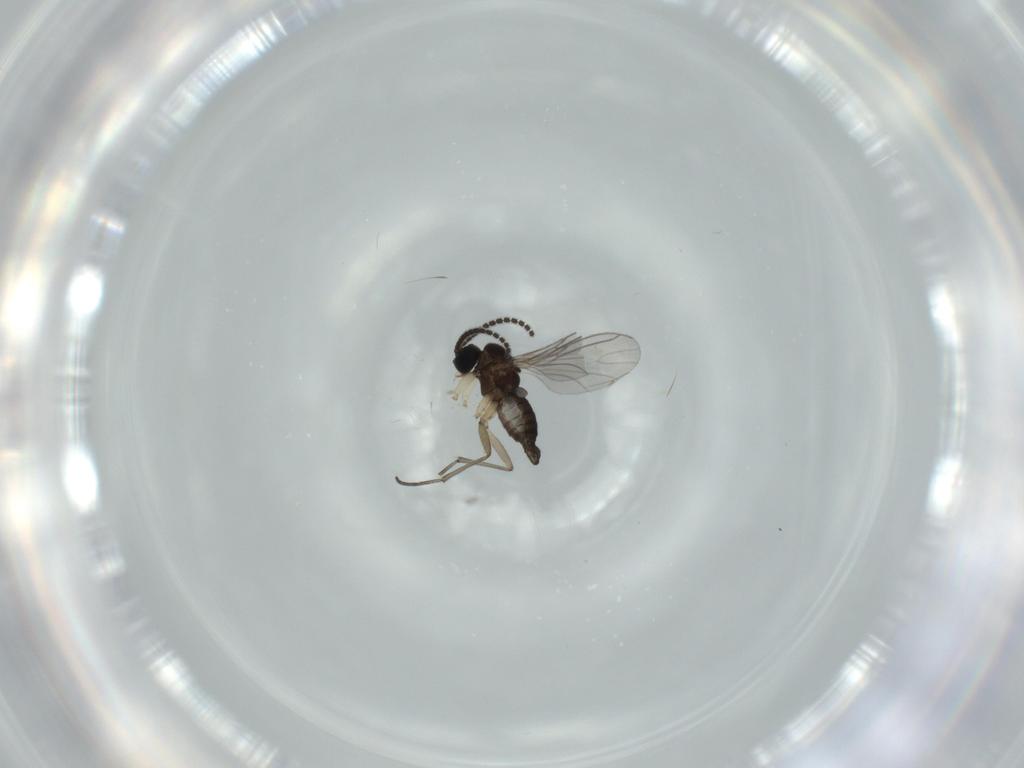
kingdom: Animalia
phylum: Arthropoda
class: Insecta
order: Diptera
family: Sciaridae
